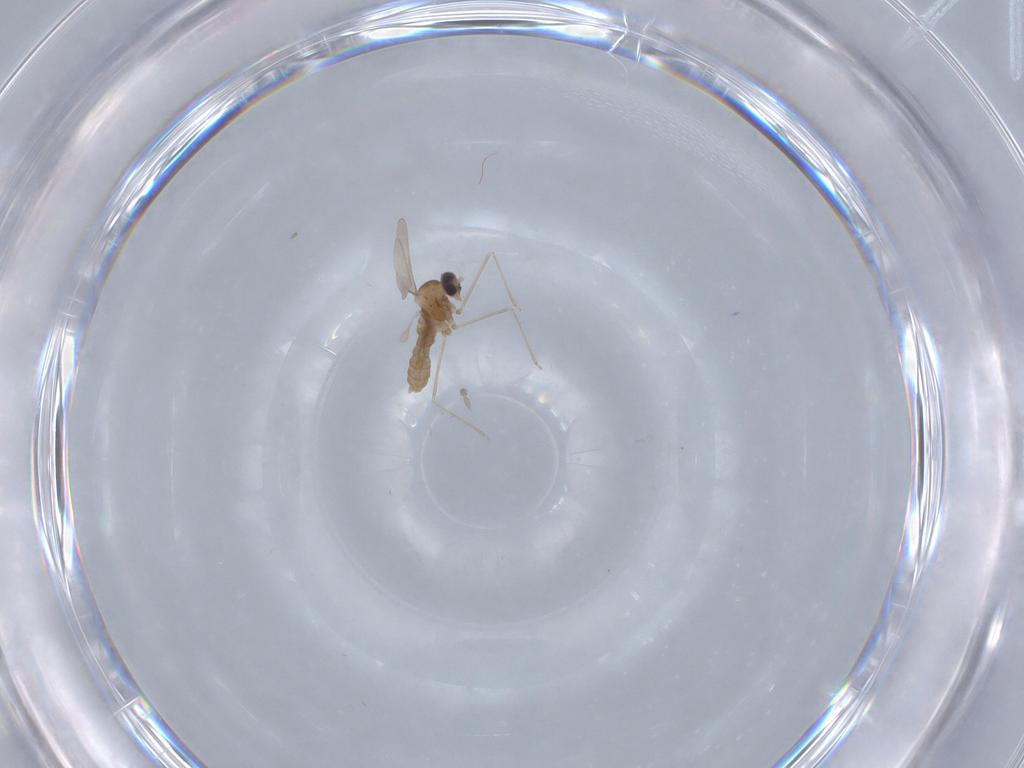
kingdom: Animalia
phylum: Arthropoda
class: Insecta
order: Diptera
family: Cecidomyiidae
